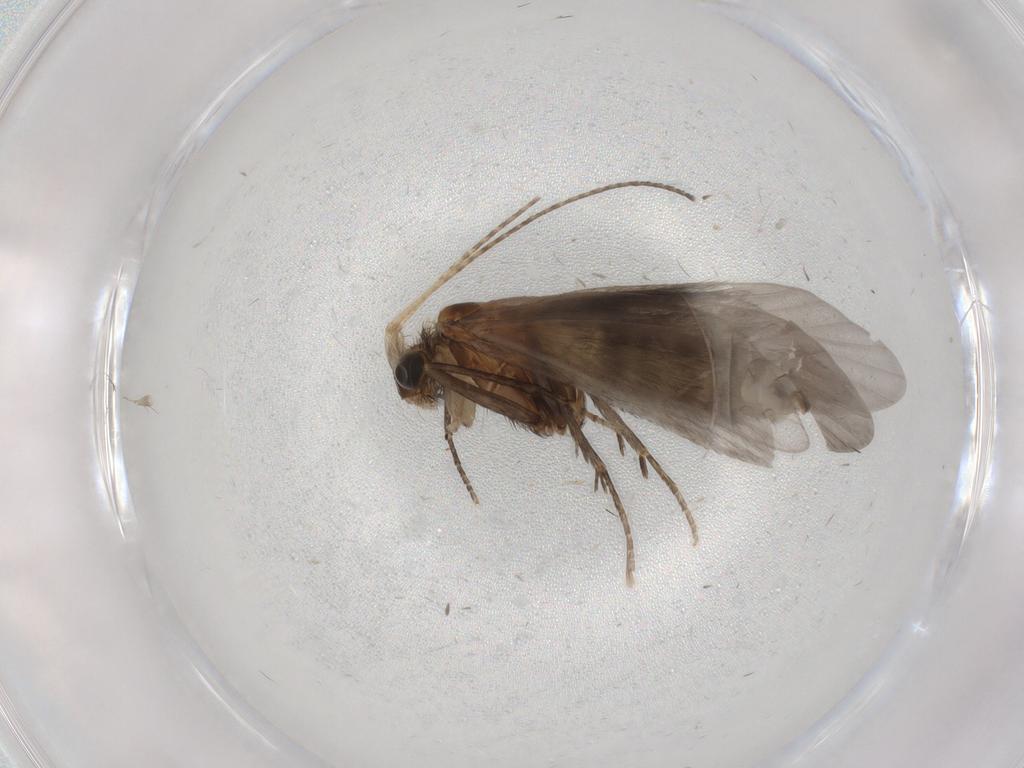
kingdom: Animalia
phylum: Arthropoda
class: Insecta
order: Trichoptera
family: Helicopsychidae
